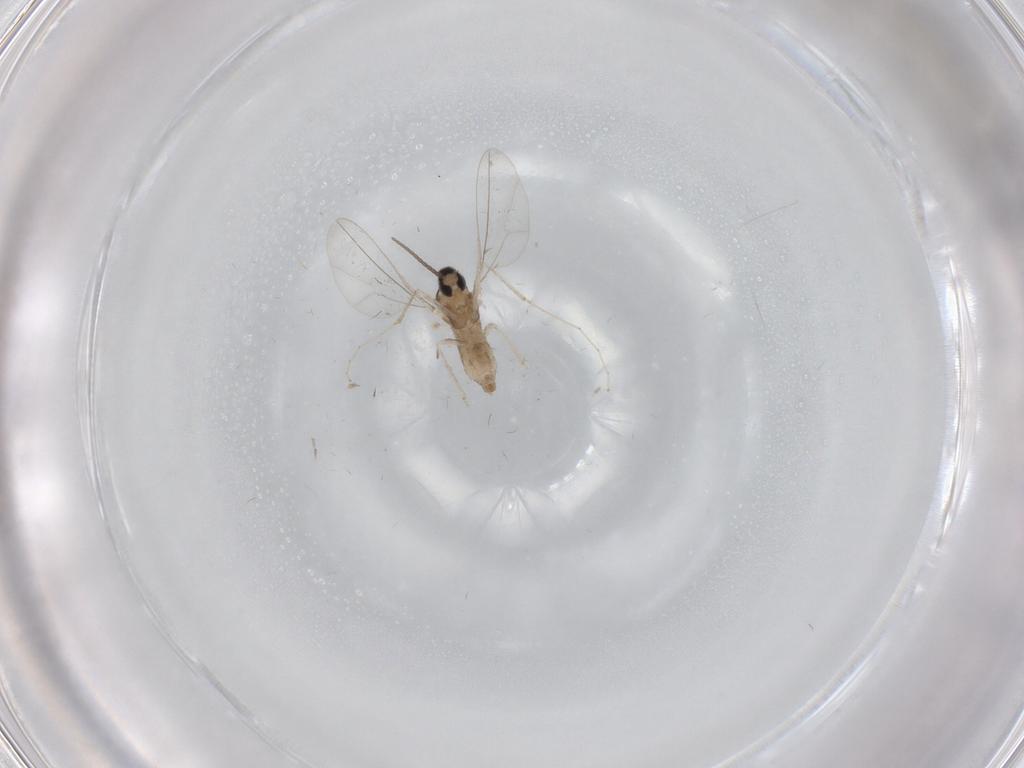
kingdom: Animalia
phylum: Arthropoda
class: Insecta
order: Diptera
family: Cecidomyiidae
